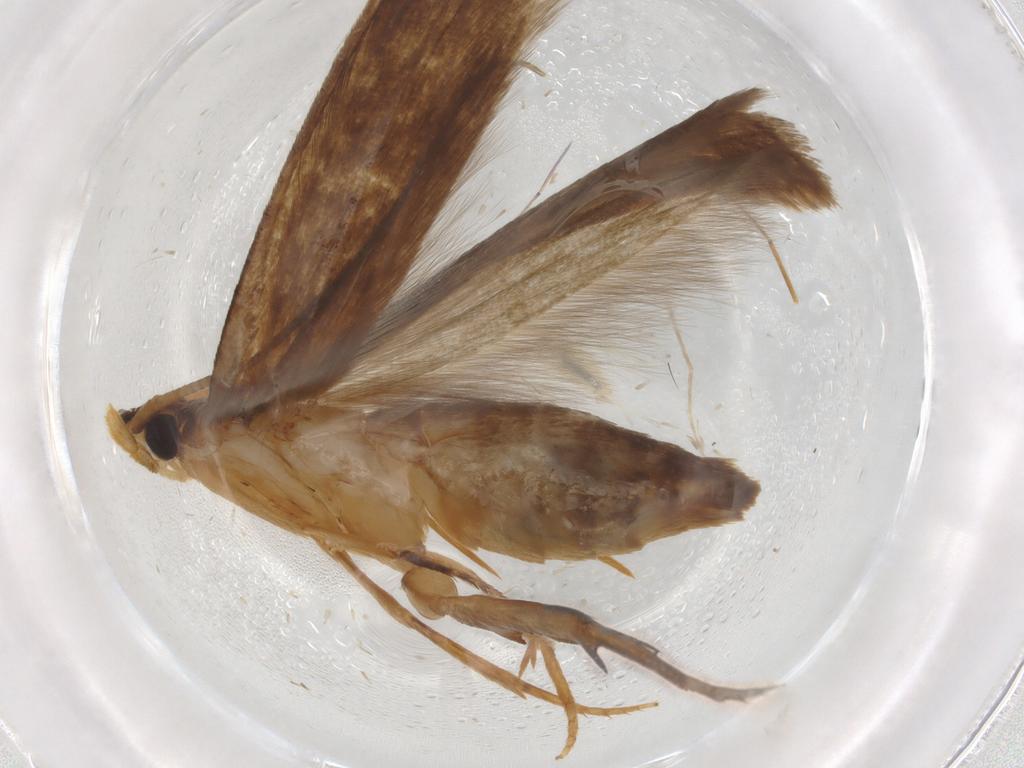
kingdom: Animalia
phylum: Arthropoda
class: Insecta
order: Lepidoptera
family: Tineidae
